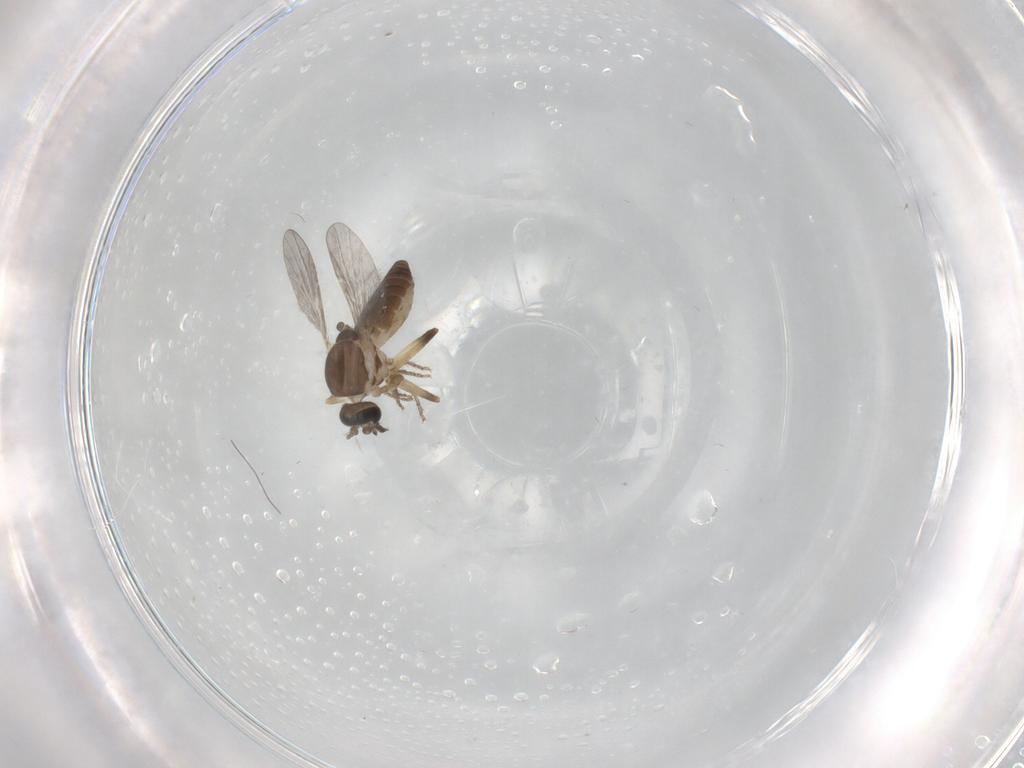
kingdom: Animalia
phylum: Arthropoda
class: Insecta
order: Diptera
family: Ceratopogonidae
